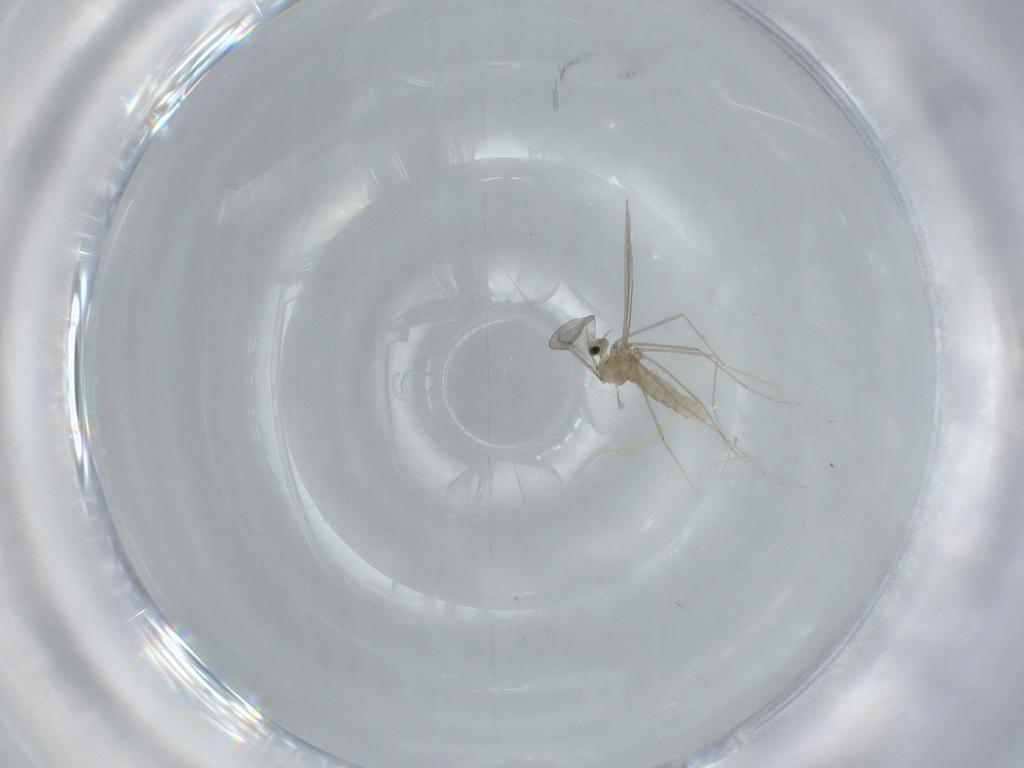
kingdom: Animalia
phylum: Arthropoda
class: Insecta
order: Diptera
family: Cecidomyiidae
